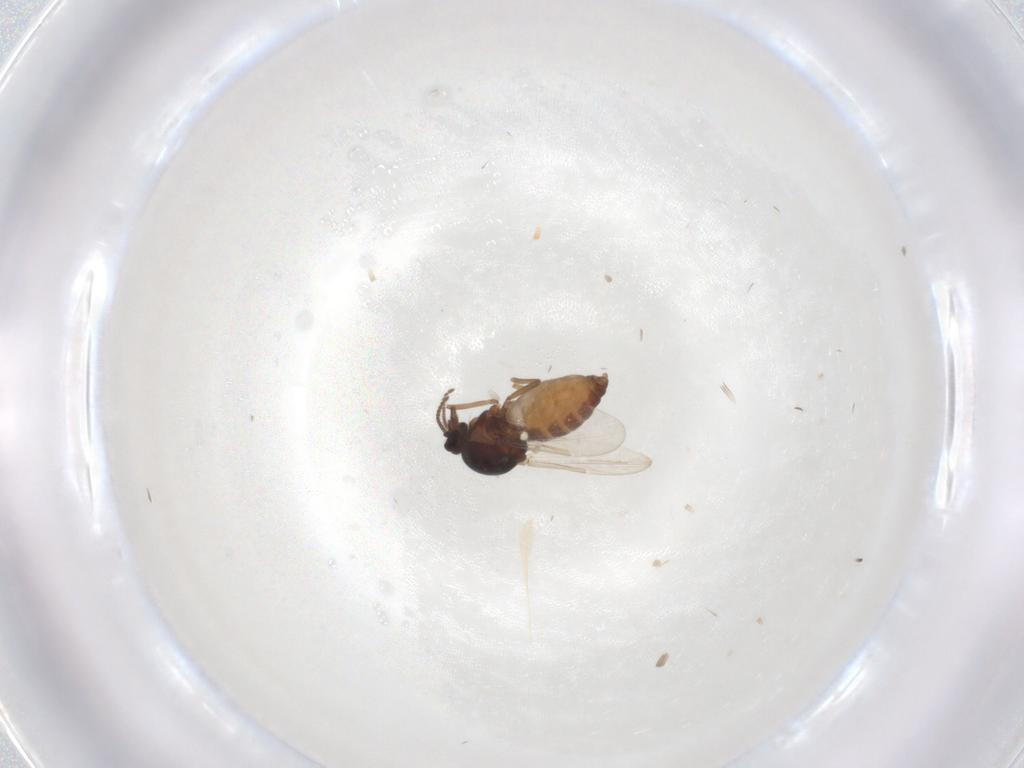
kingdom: Animalia
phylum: Arthropoda
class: Insecta
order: Diptera
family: Ceratopogonidae
